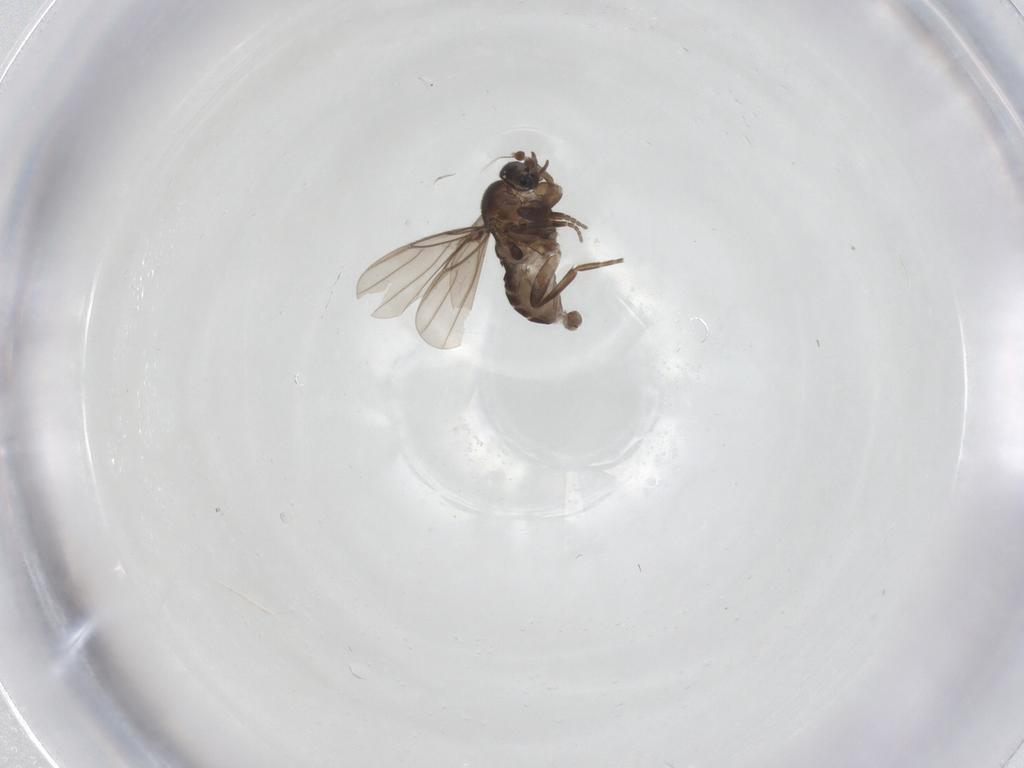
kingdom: Animalia
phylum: Arthropoda
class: Insecta
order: Diptera
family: Phoridae
